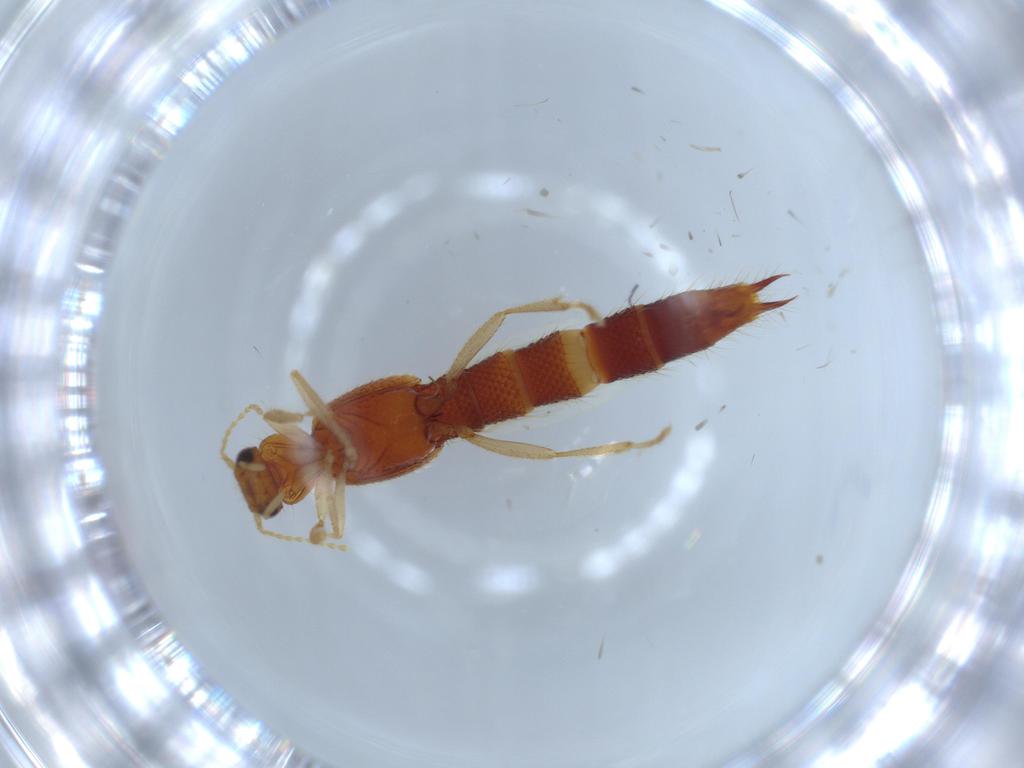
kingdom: Animalia
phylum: Arthropoda
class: Insecta
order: Coleoptera
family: Staphylinidae
